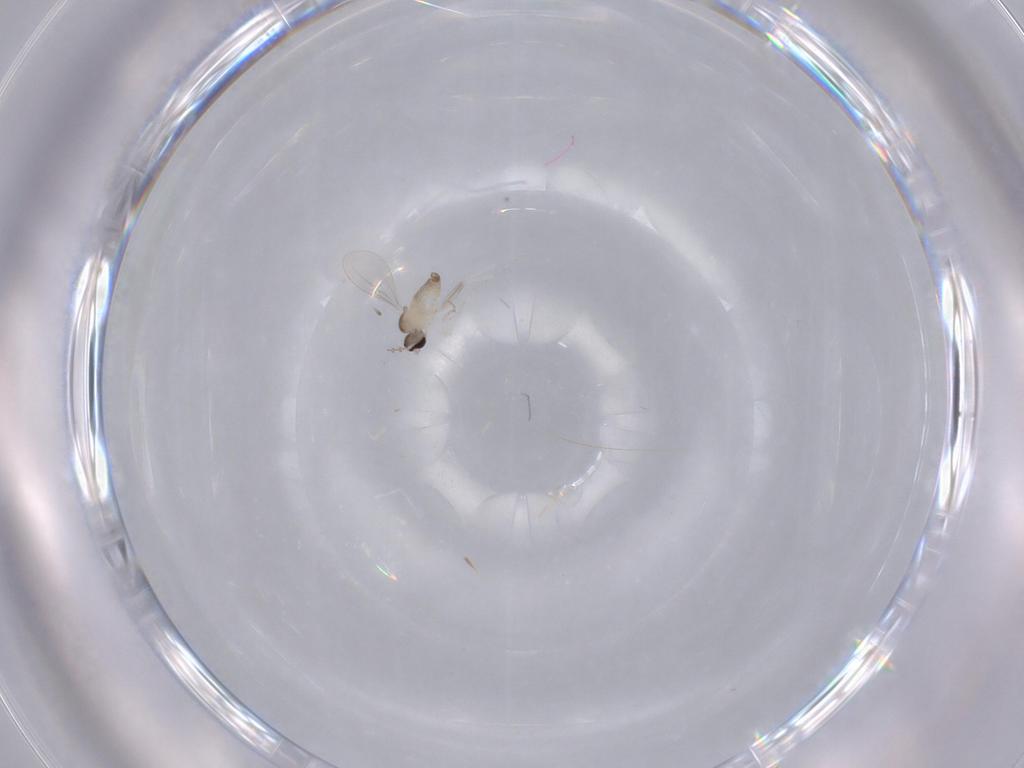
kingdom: Animalia
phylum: Arthropoda
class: Insecta
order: Diptera
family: Cecidomyiidae
